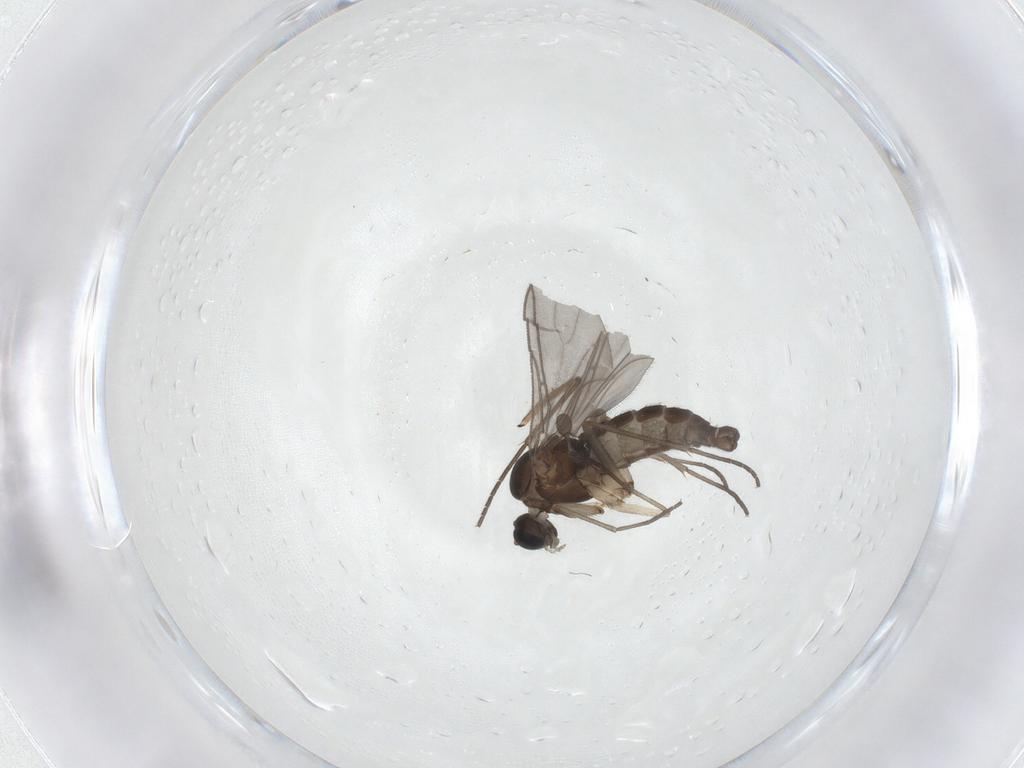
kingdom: Animalia
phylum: Arthropoda
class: Insecta
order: Diptera
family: Sciaridae
